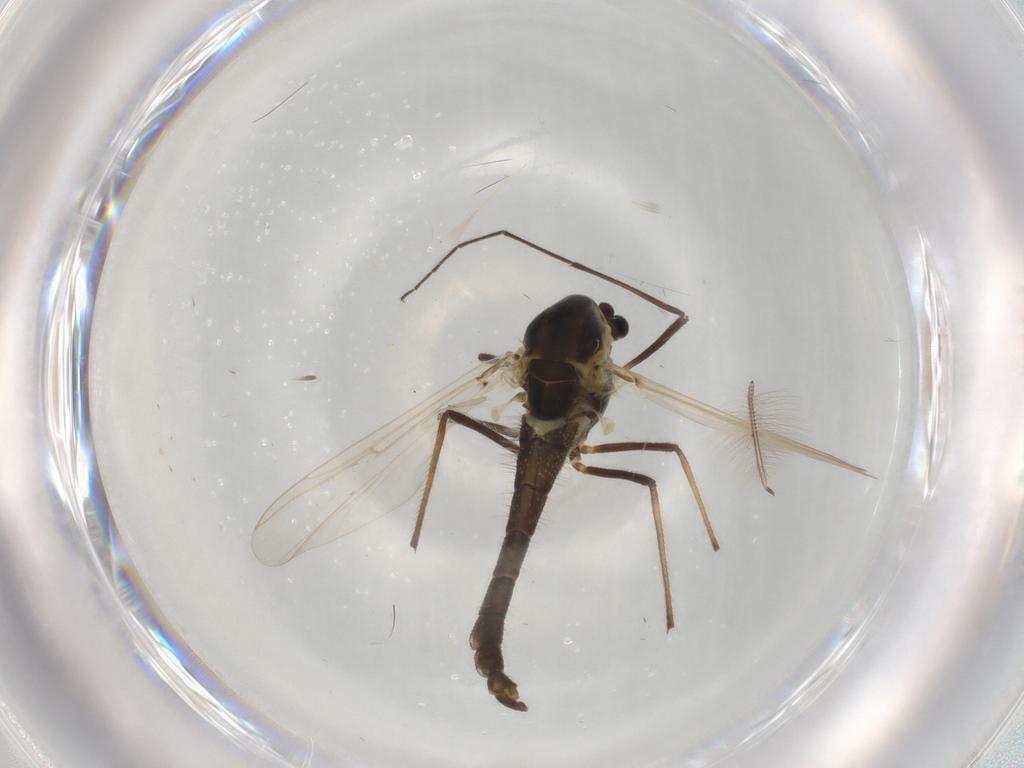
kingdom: Animalia
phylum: Arthropoda
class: Insecta
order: Diptera
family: Chironomidae
